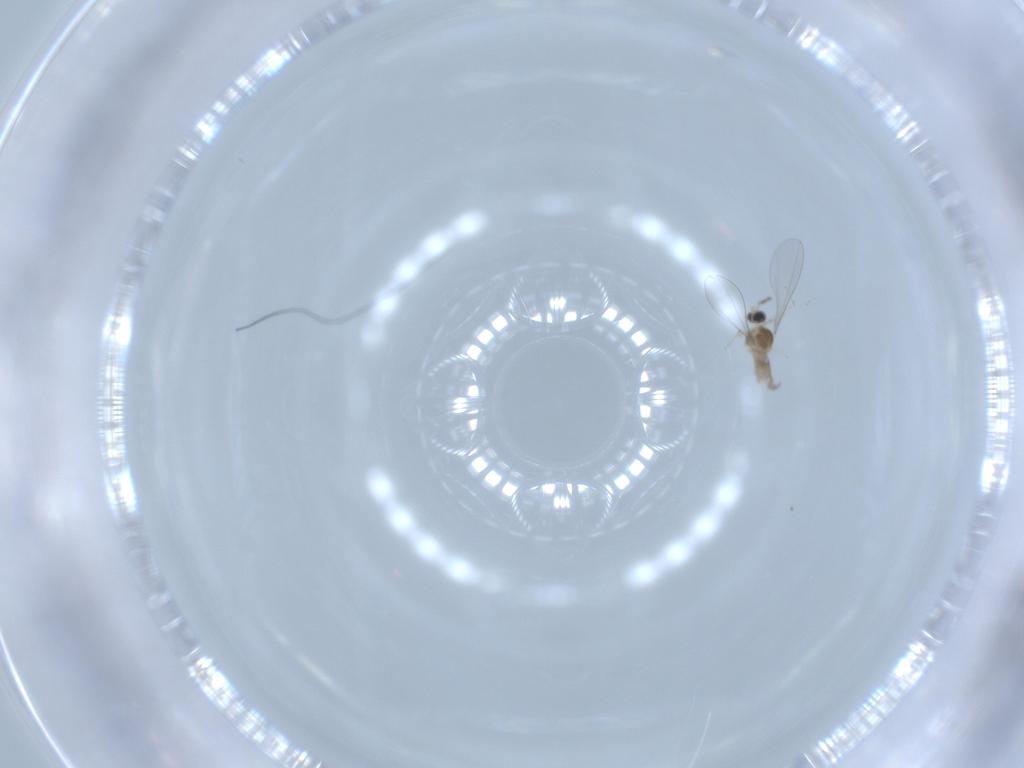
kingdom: Animalia
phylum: Arthropoda
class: Insecta
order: Diptera
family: Cecidomyiidae
